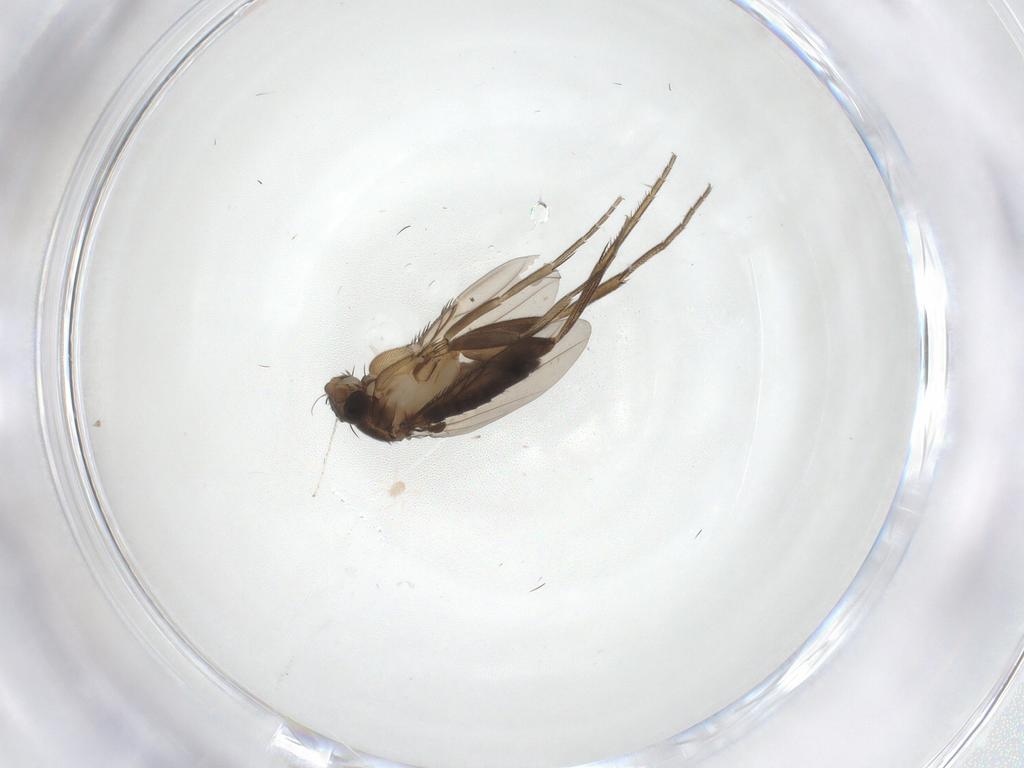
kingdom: Animalia
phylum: Arthropoda
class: Insecta
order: Diptera
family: Phoridae
